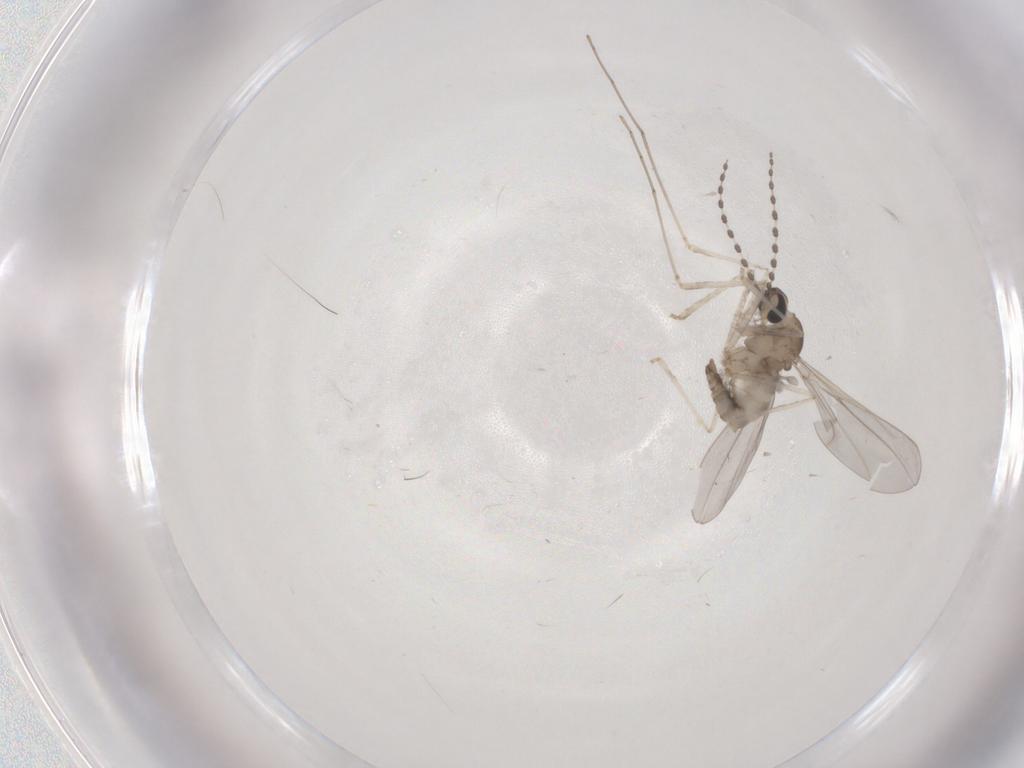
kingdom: Animalia
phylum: Arthropoda
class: Insecta
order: Diptera
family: Cecidomyiidae
